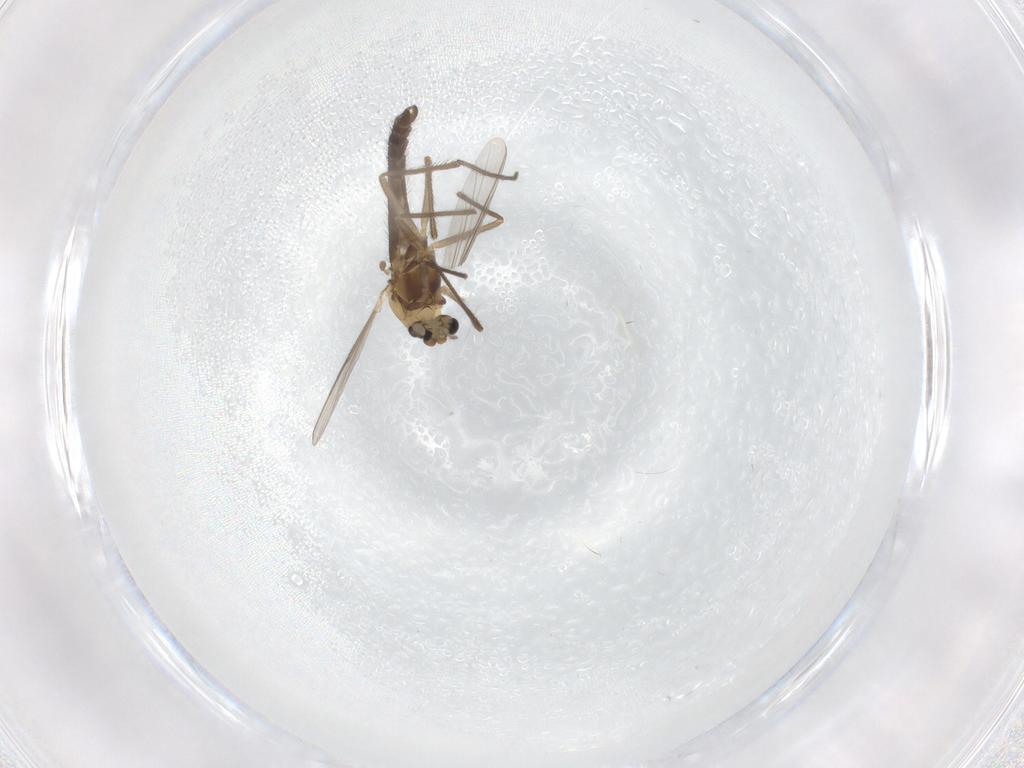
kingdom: Animalia
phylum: Arthropoda
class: Insecta
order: Diptera
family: Chironomidae
